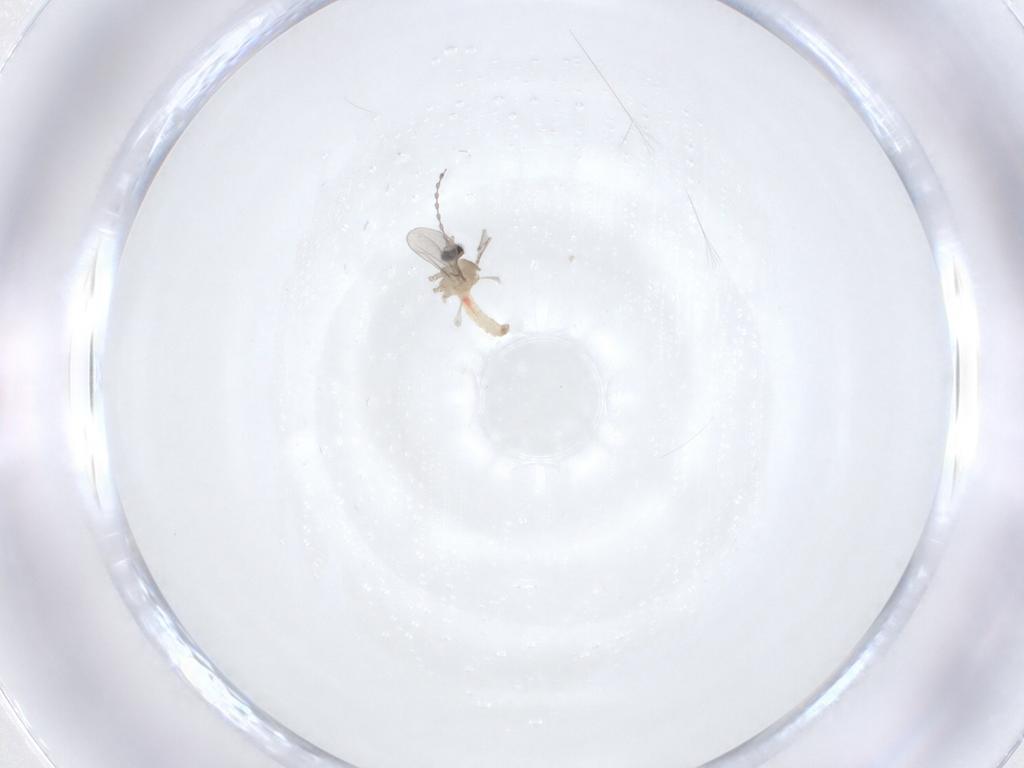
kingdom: Animalia
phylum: Arthropoda
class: Insecta
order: Diptera
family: Cecidomyiidae
